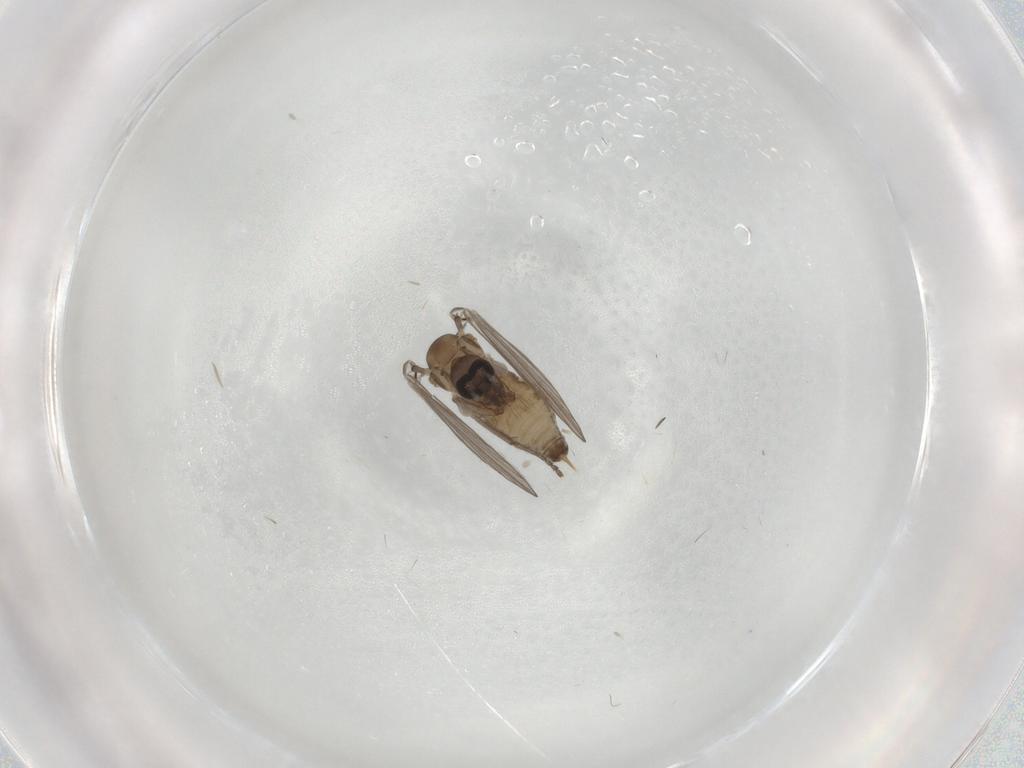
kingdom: Animalia
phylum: Arthropoda
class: Insecta
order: Diptera
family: Psychodidae
